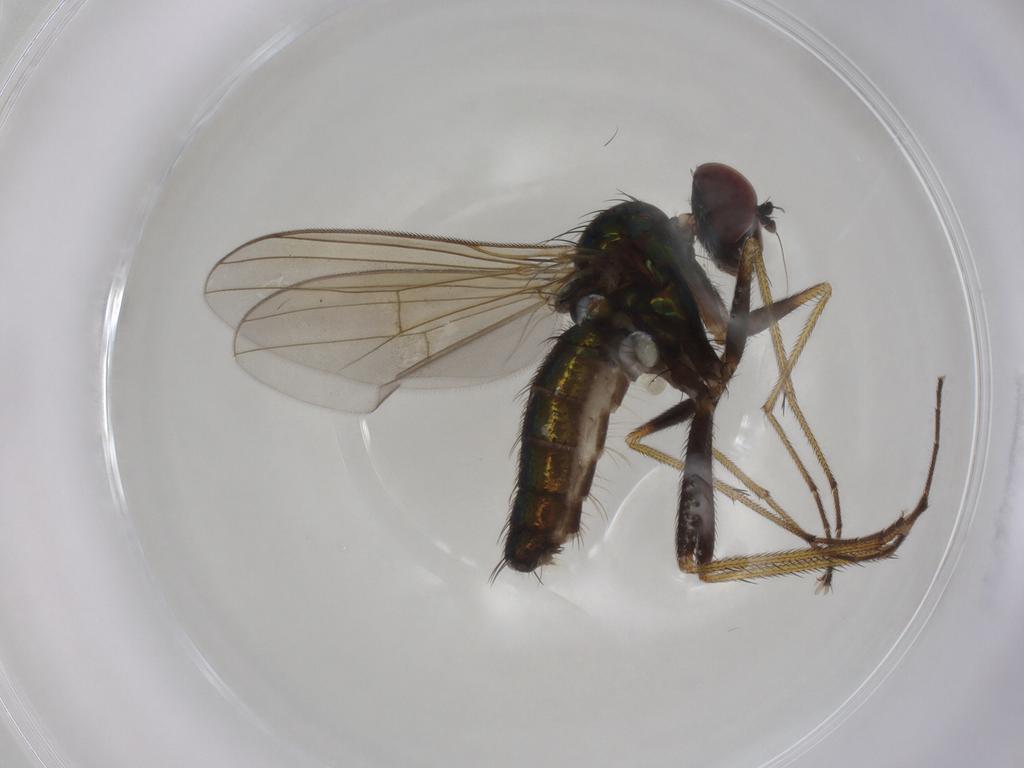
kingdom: Animalia
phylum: Arthropoda
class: Insecta
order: Diptera
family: Dolichopodidae
